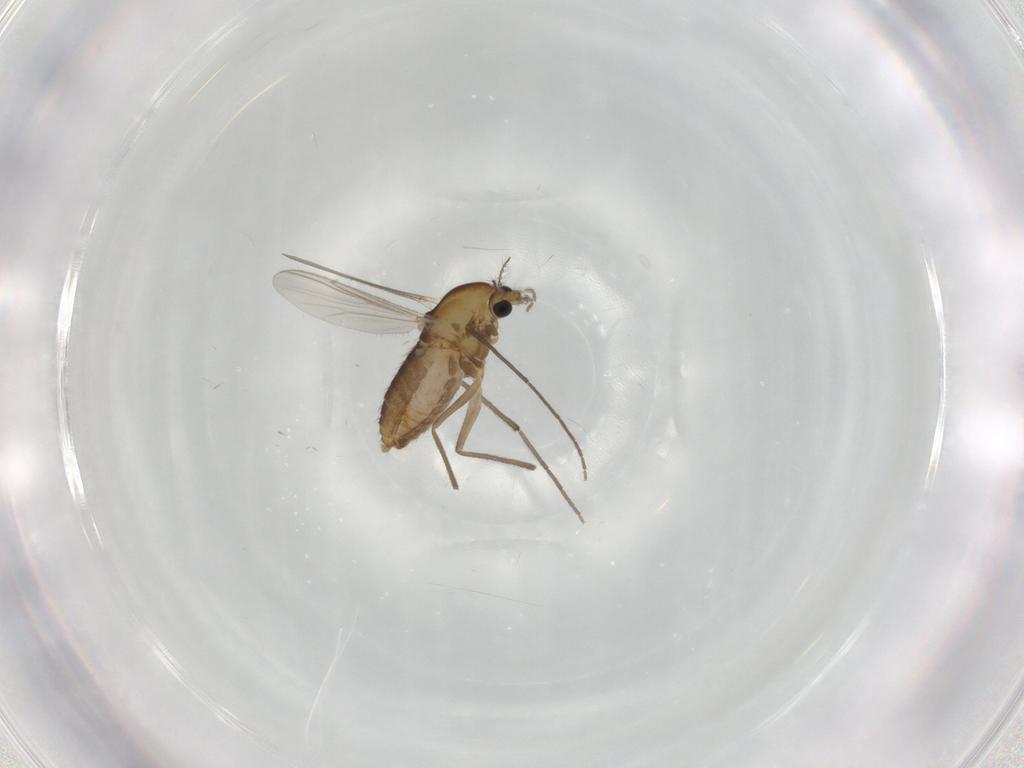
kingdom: Animalia
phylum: Arthropoda
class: Insecta
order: Diptera
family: Chironomidae
